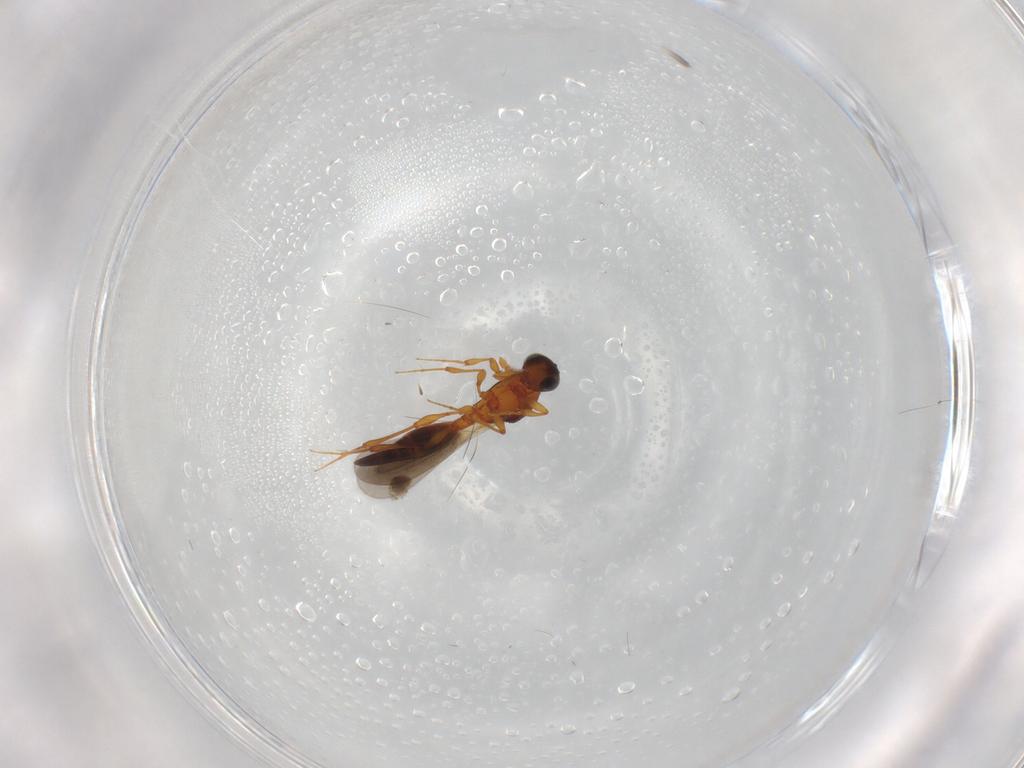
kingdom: Animalia
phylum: Arthropoda
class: Insecta
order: Hymenoptera
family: Platygastridae
